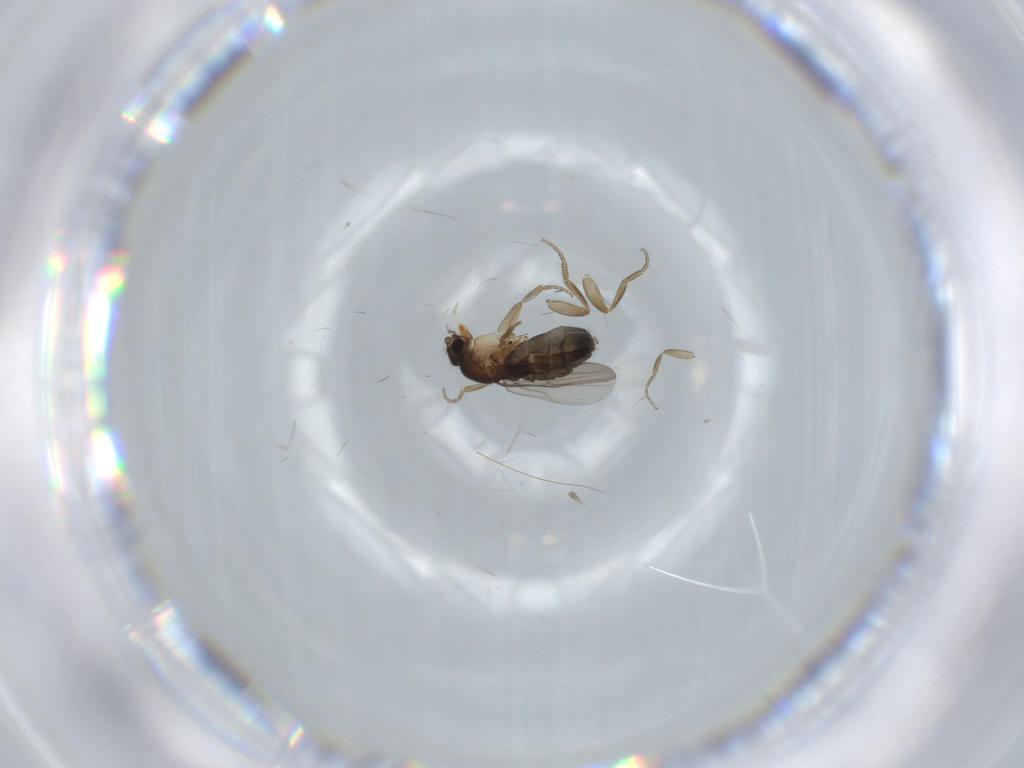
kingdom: Animalia
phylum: Arthropoda
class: Insecta
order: Diptera
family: Phoridae
